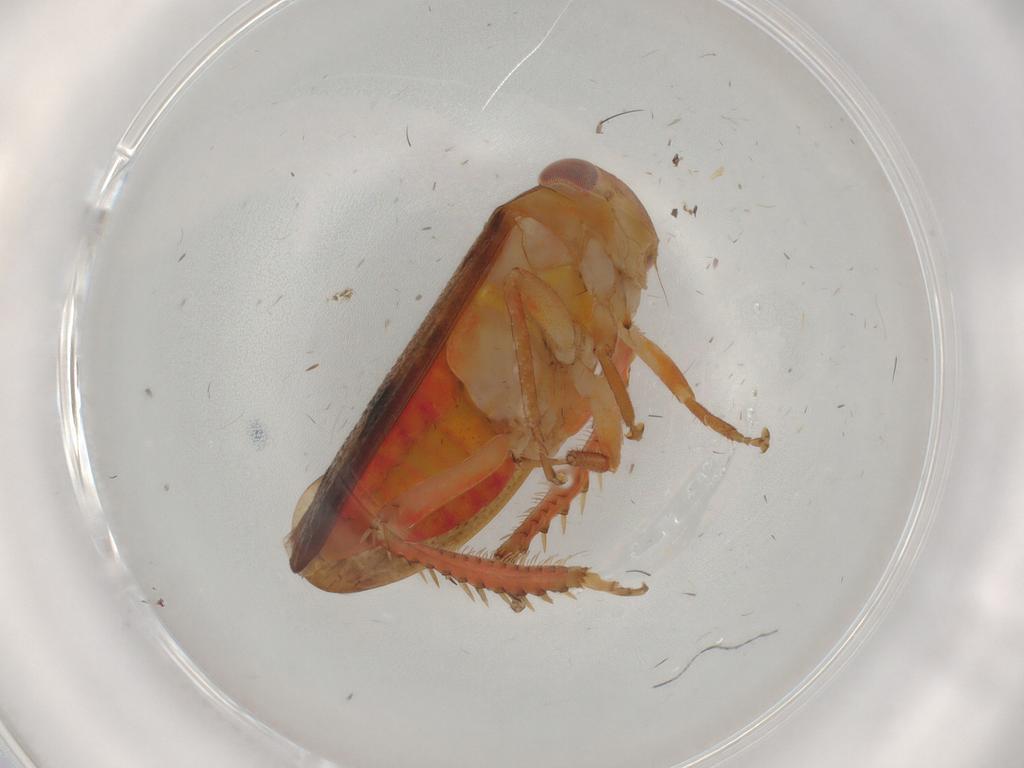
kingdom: Animalia
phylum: Arthropoda
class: Insecta
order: Hemiptera
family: Cicadellidae
